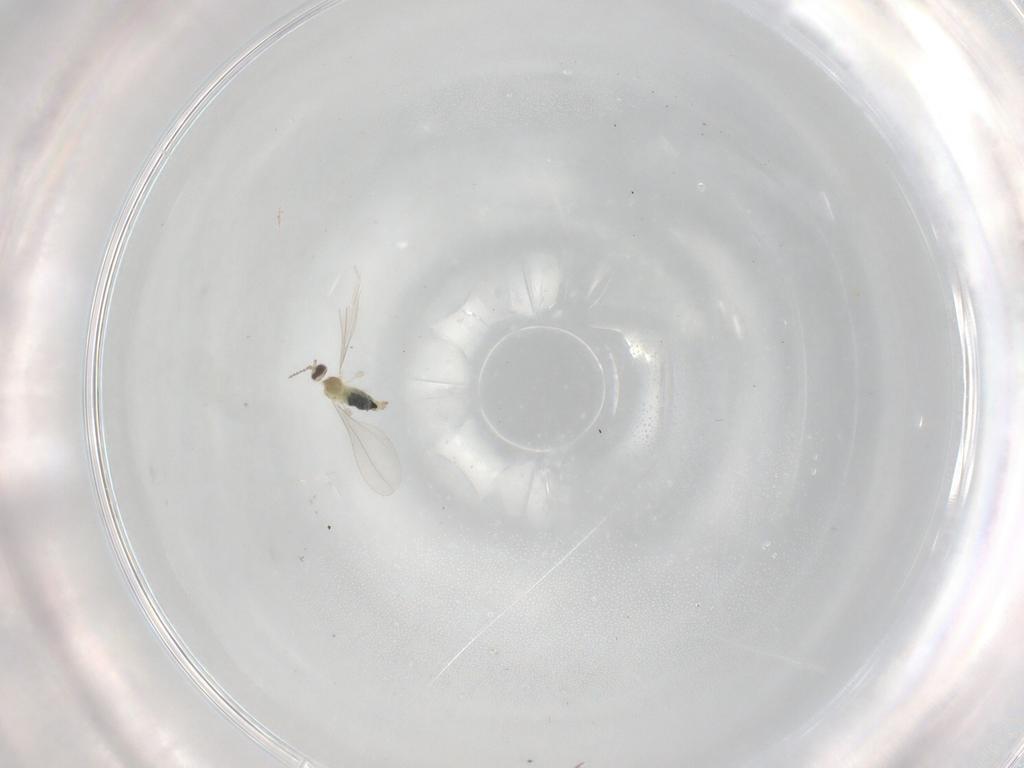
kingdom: Animalia
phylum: Arthropoda
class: Insecta
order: Diptera
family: Cecidomyiidae
